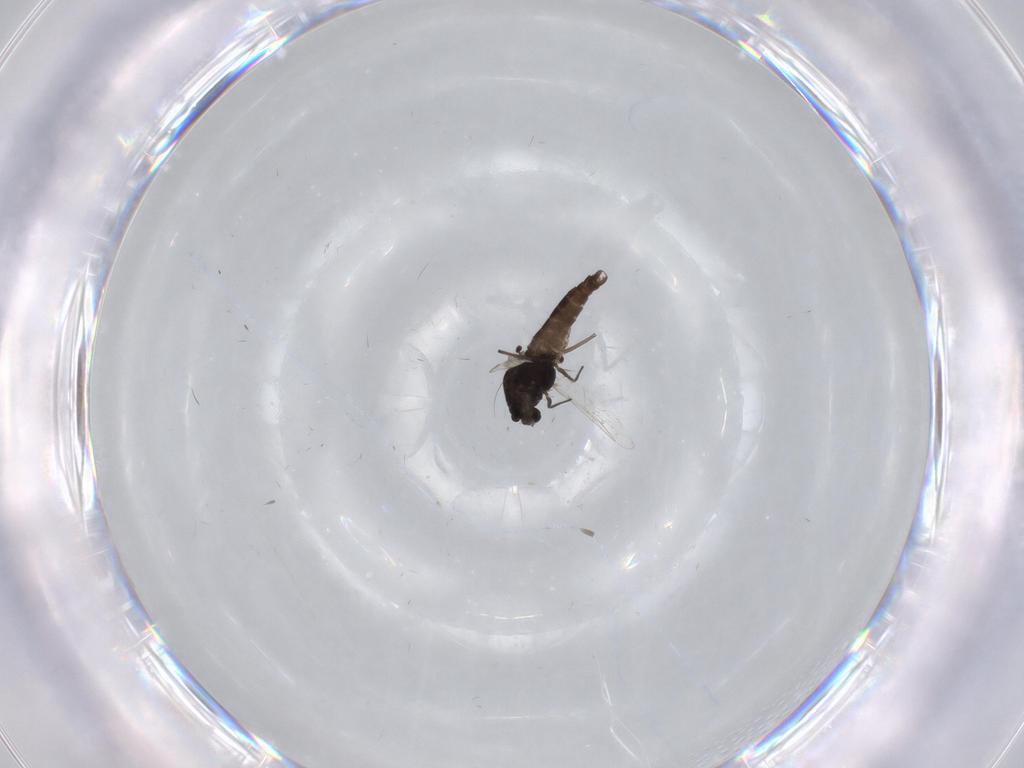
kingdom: Animalia
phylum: Arthropoda
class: Insecta
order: Diptera
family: Chironomidae
